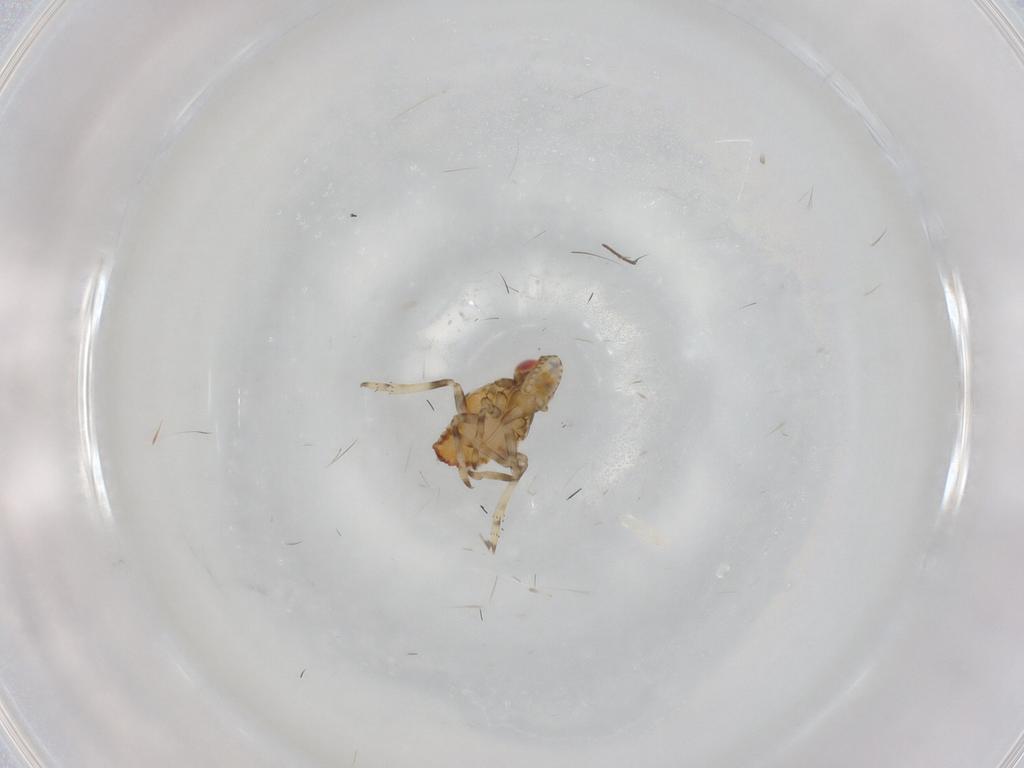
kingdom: Animalia
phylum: Arthropoda
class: Insecta
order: Hemiptera
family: Tropiduchidae
